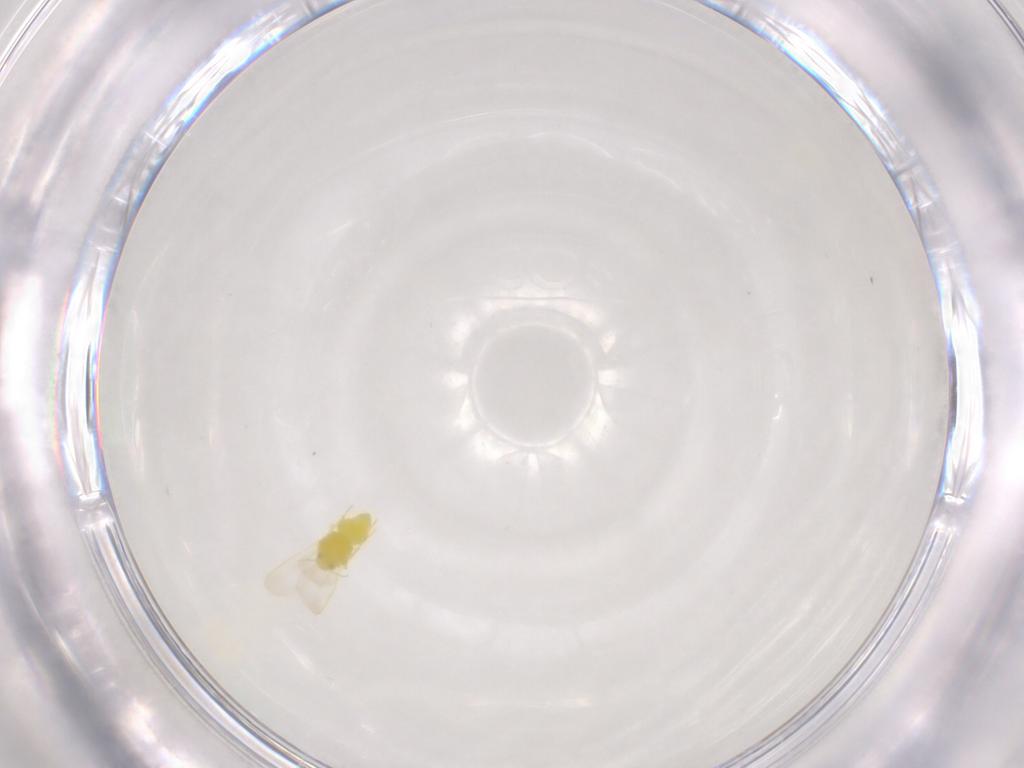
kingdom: Animalia
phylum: Arthropoda
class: Insecta
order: Hemiptera
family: Aleyrodidae
